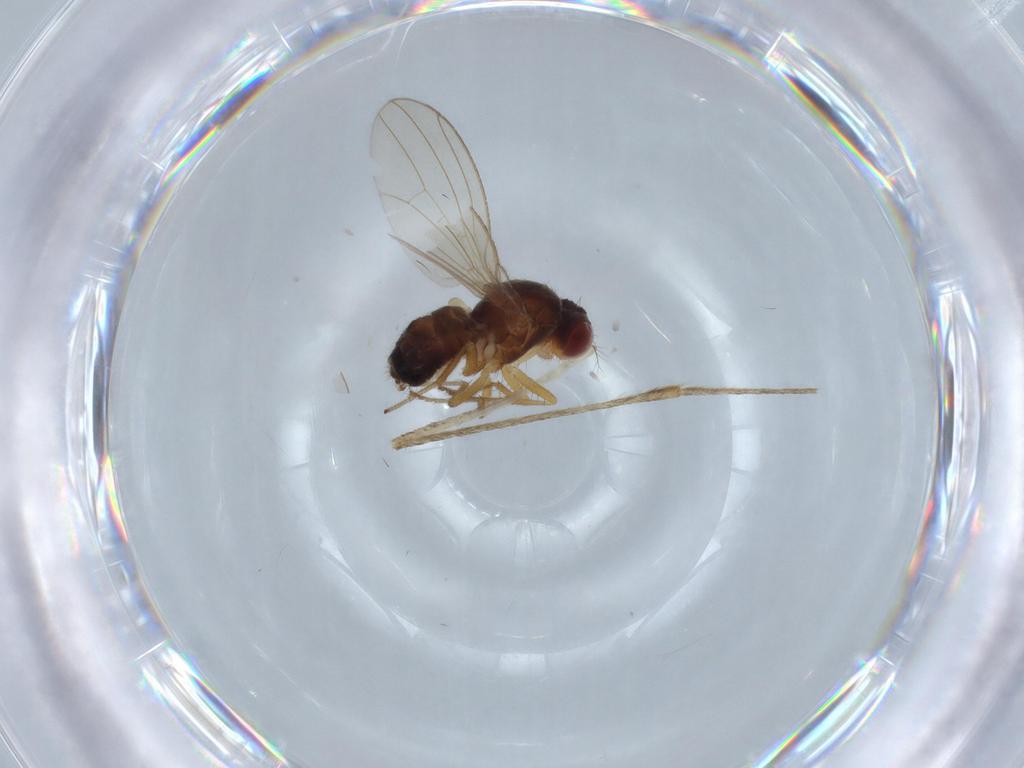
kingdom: Animalia
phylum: Arthropoda
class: Insecta
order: Diptera
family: Drosophilidae
